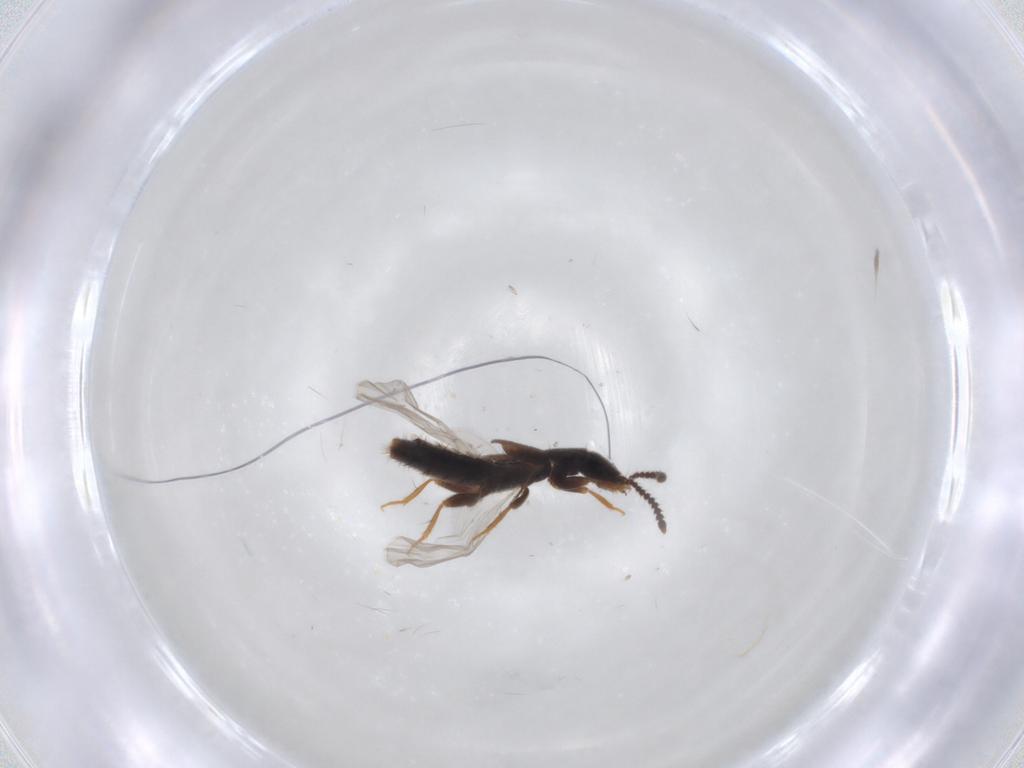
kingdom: Animalia
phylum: Arthropoda
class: Insecta
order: Coleoptera
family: Staphylinidae
